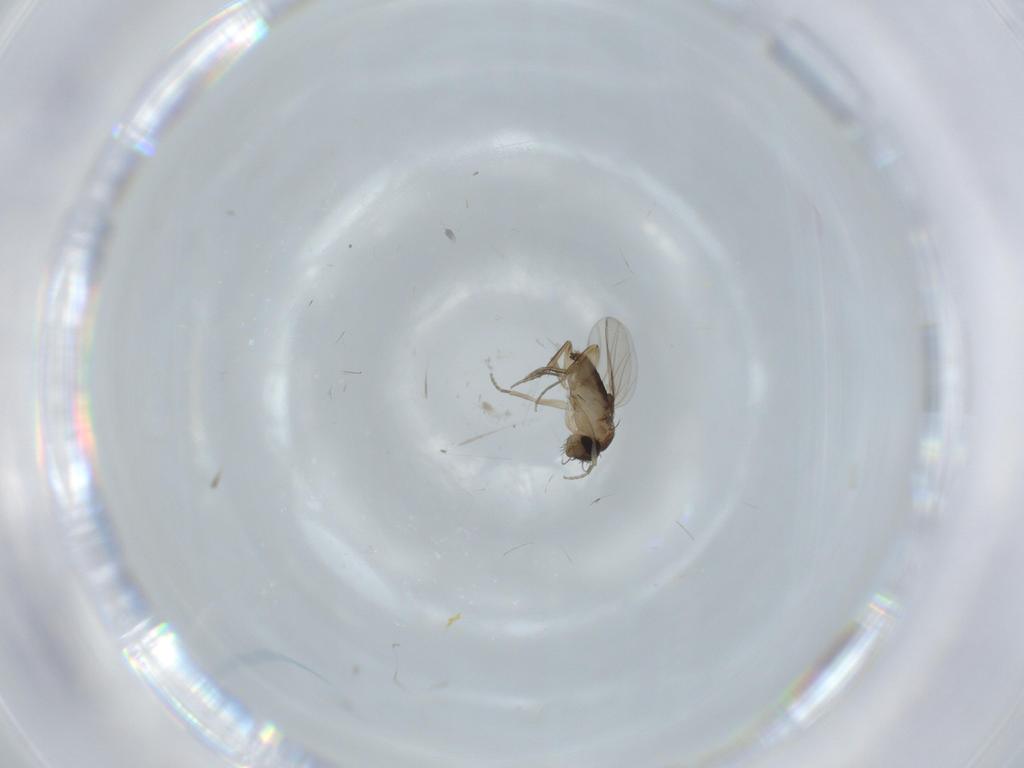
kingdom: Animalia
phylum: Arthropoda
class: Insecta
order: Diptera
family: Phoridae
